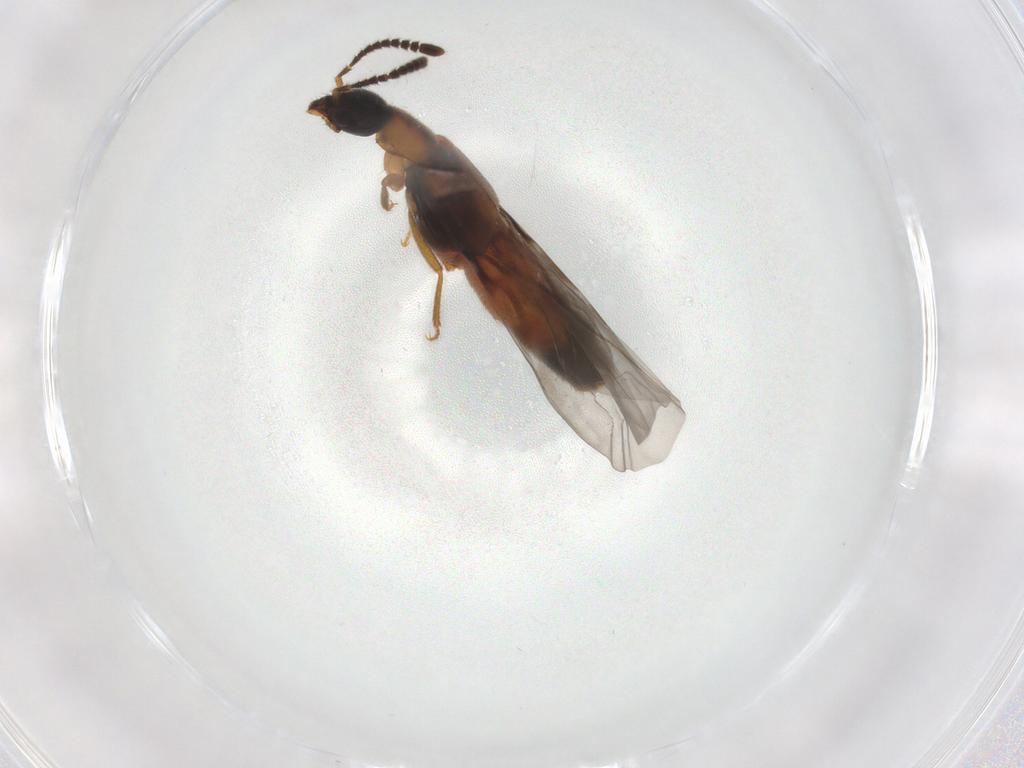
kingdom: Animalia
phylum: Arthropoda
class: Insecta
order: Coleoptera
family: Staphylinidae
